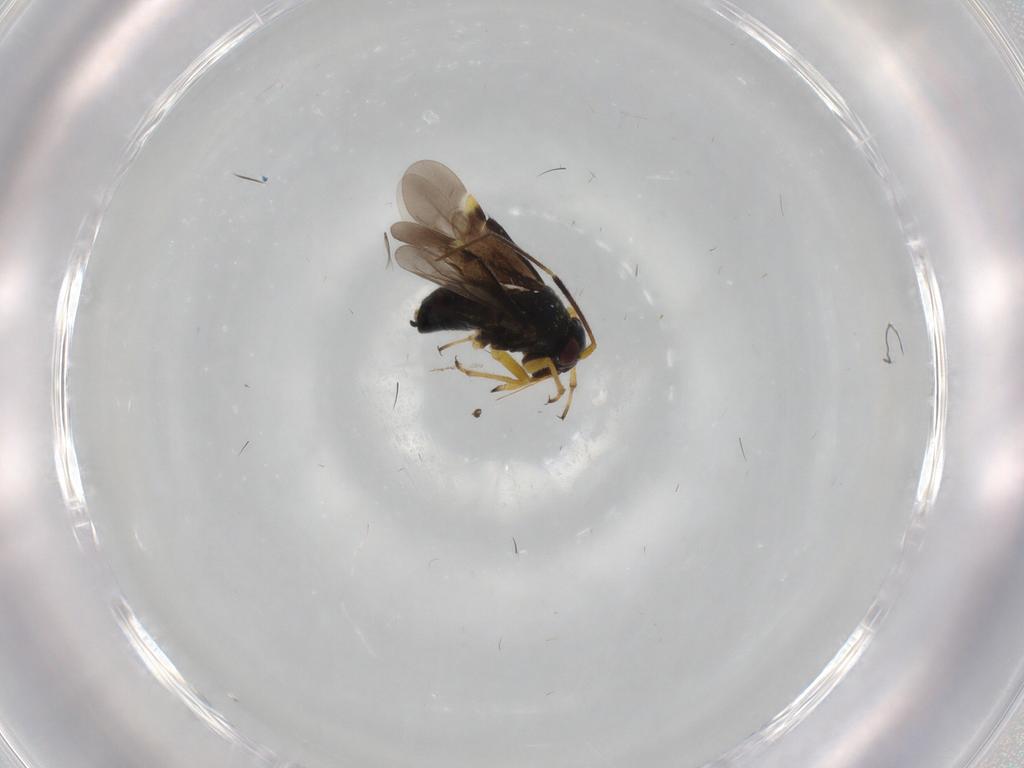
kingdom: Animalia
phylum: Arthropoda
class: Insecta
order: Hemiptera
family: Miridae
